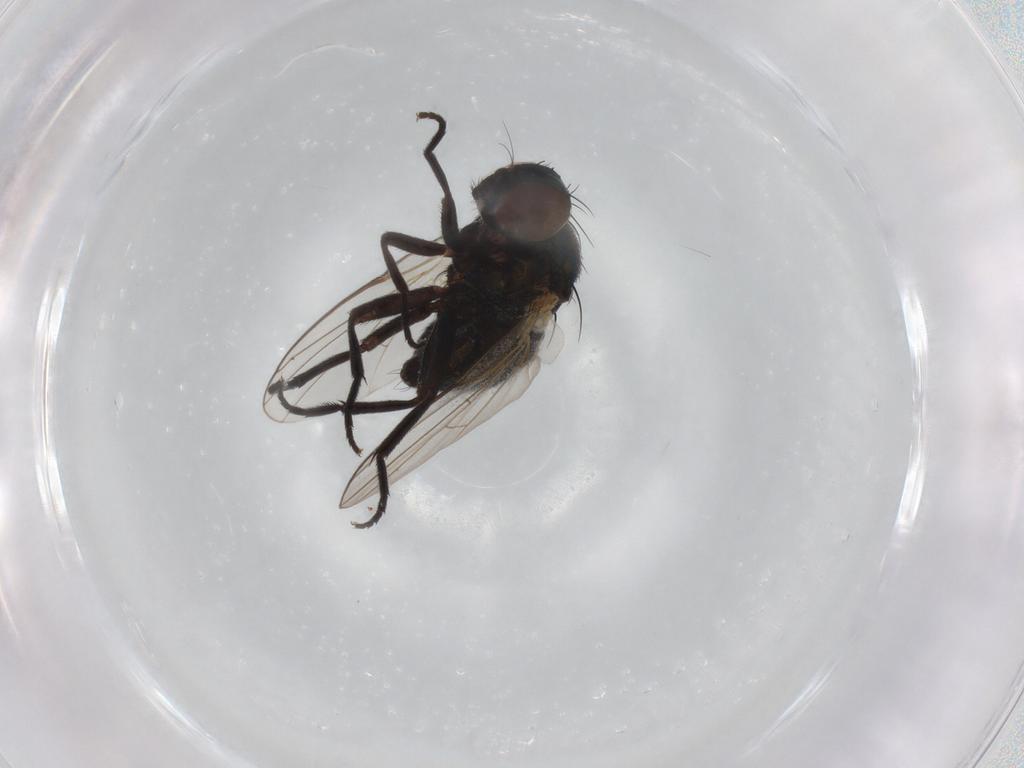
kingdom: Animalia
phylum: Arthropoda
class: Insecta
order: Diptera
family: Agromyzidae
